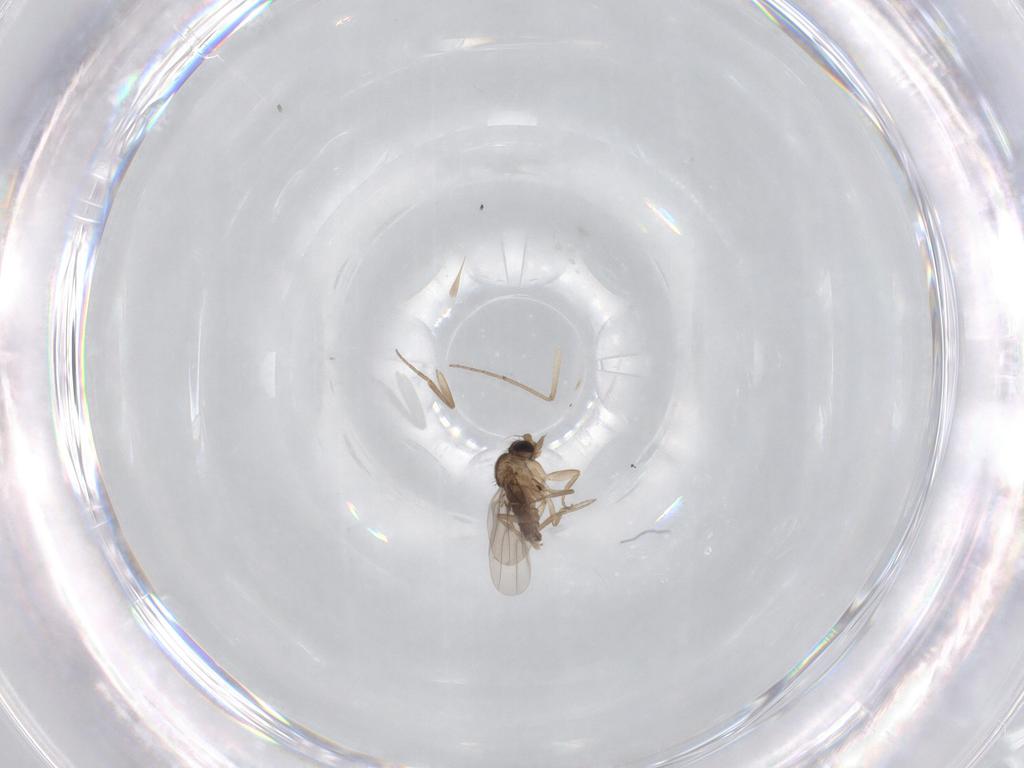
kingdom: Animalia
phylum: Arthropoda
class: Insecta
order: Diptera
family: Phoridae
